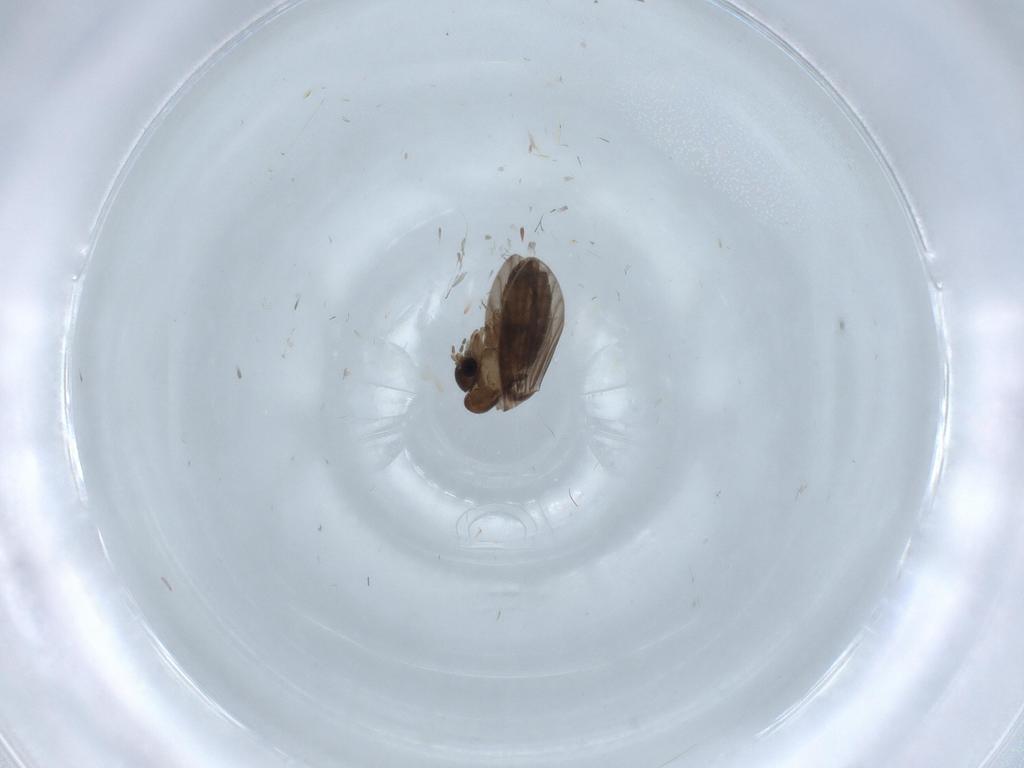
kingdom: Animalia
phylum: Arthropoda
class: Insecta
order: Diptera
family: Psychodidae
